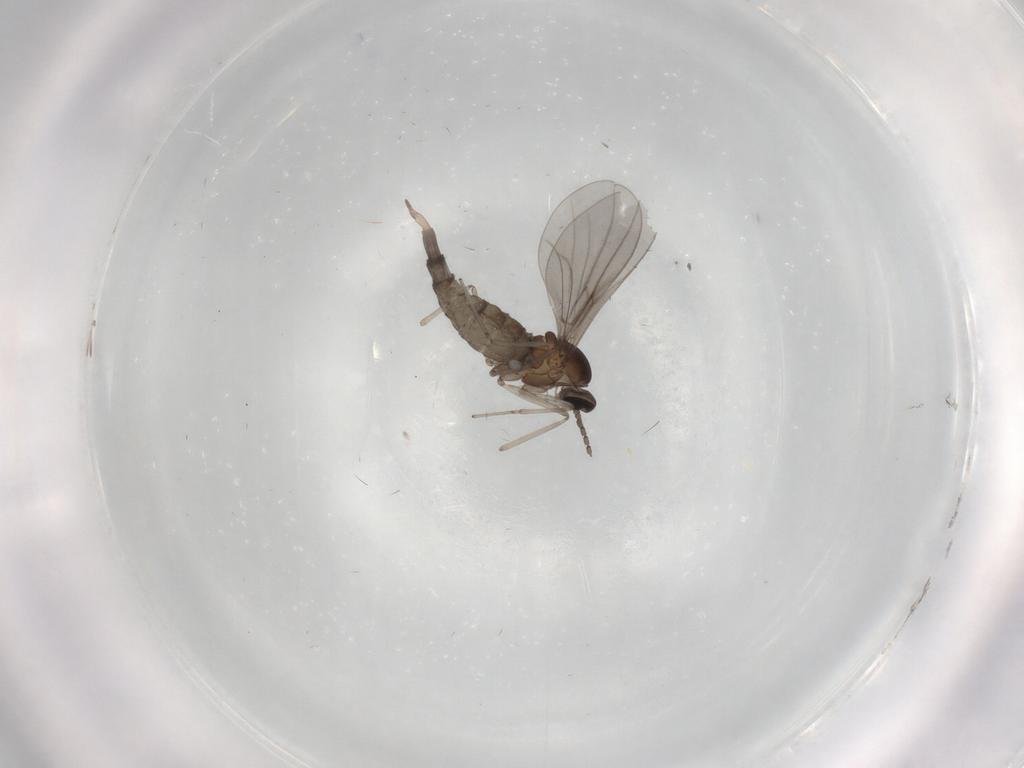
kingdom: Animalia
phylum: Arthropoda
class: Insecta
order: Diptera
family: Cecidomyiidae
